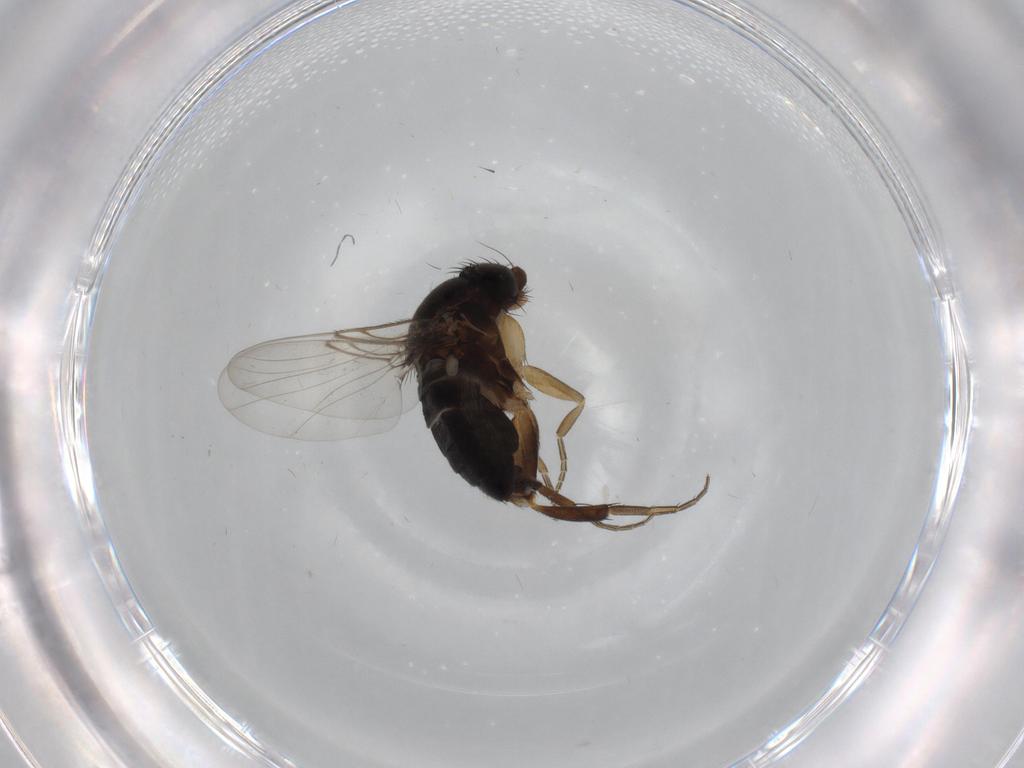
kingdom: Animalia
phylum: Arthropoda
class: Insecta
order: Diptera
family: Phoridae
